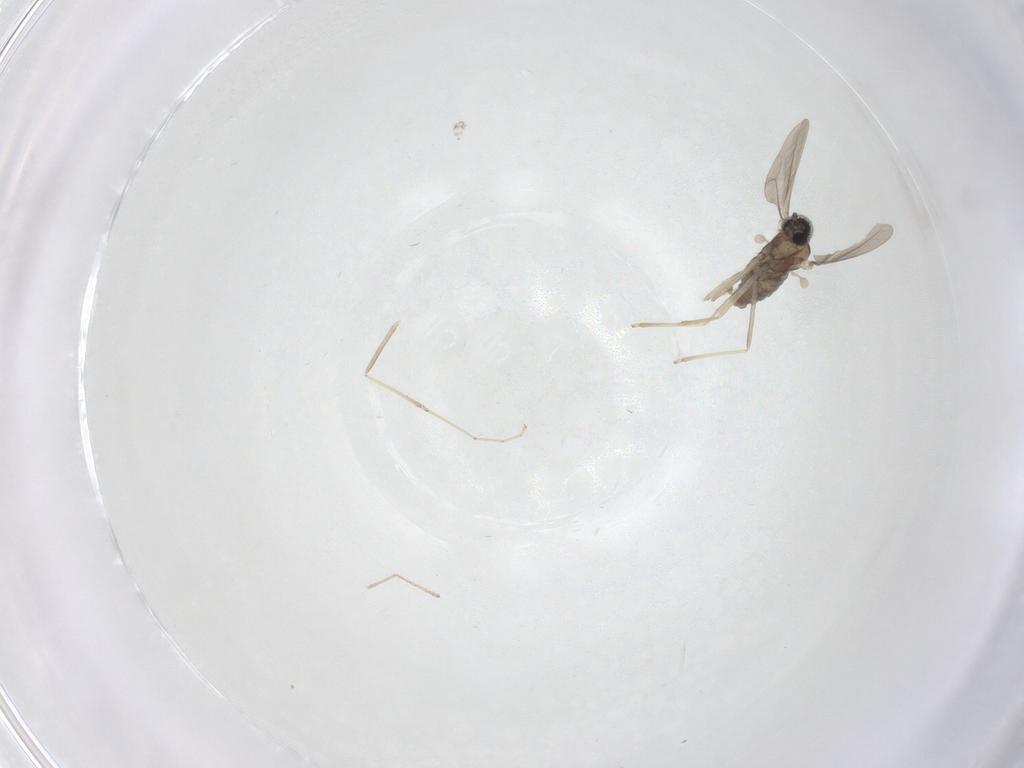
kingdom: Animalia
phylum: Arthropoda
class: Insecta
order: Diptera
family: Cecidomyiidae
